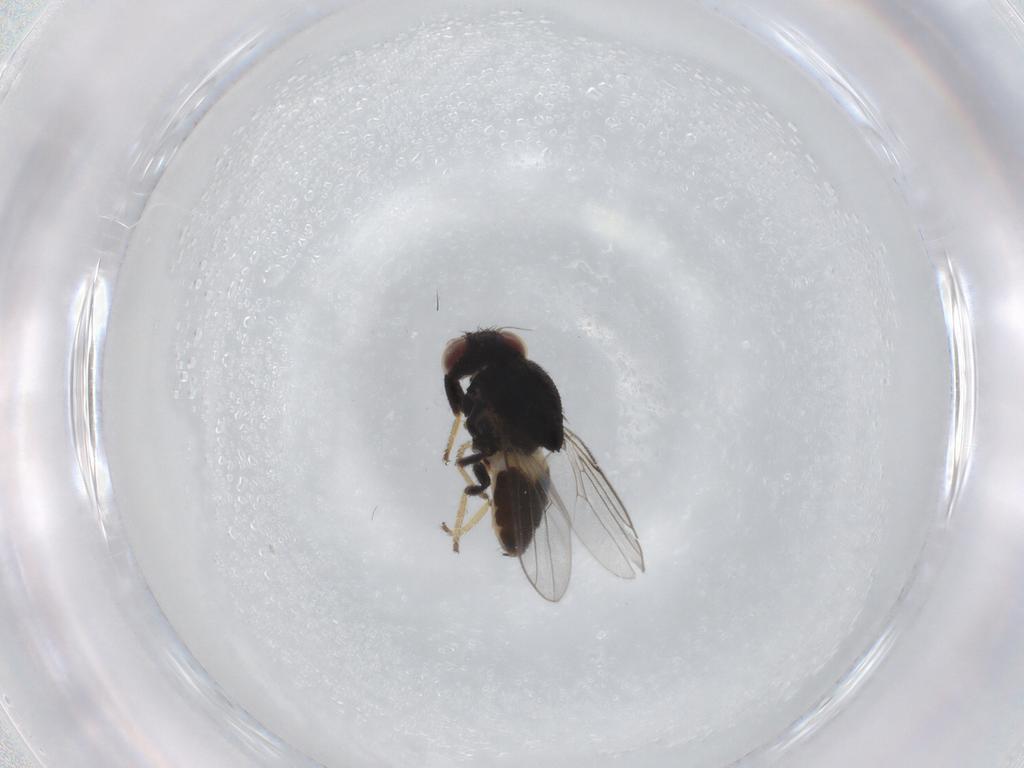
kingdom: Animalia
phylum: Arthropoda
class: Insecta
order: Diptera
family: Chloropidae
